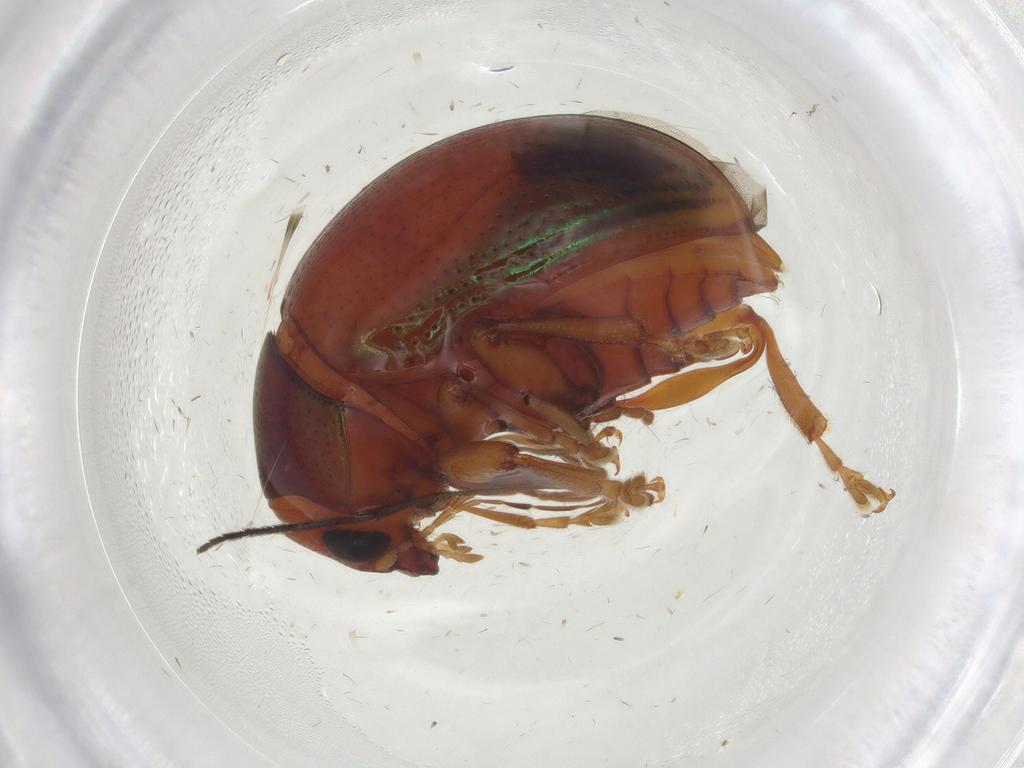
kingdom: Animalia
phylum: Arthropoda
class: Insecta
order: Coleoptera
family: Chrysomelidae
